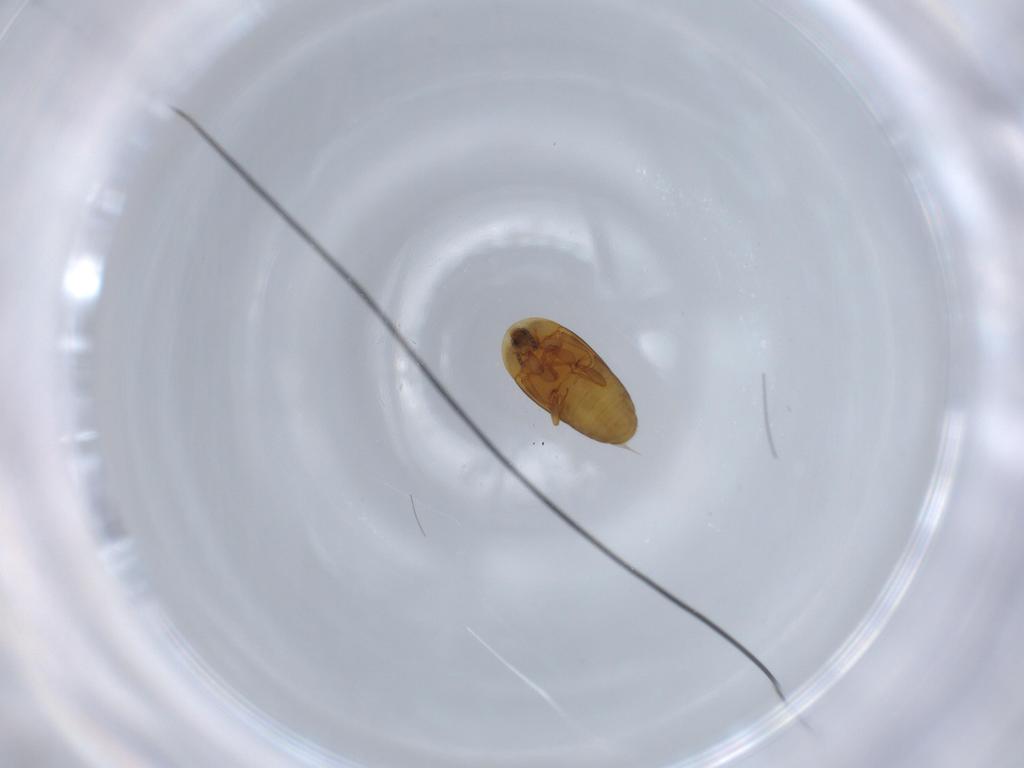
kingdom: Animalia
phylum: Arthropoda
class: Insecta
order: Coleoptera
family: Corylophidae
